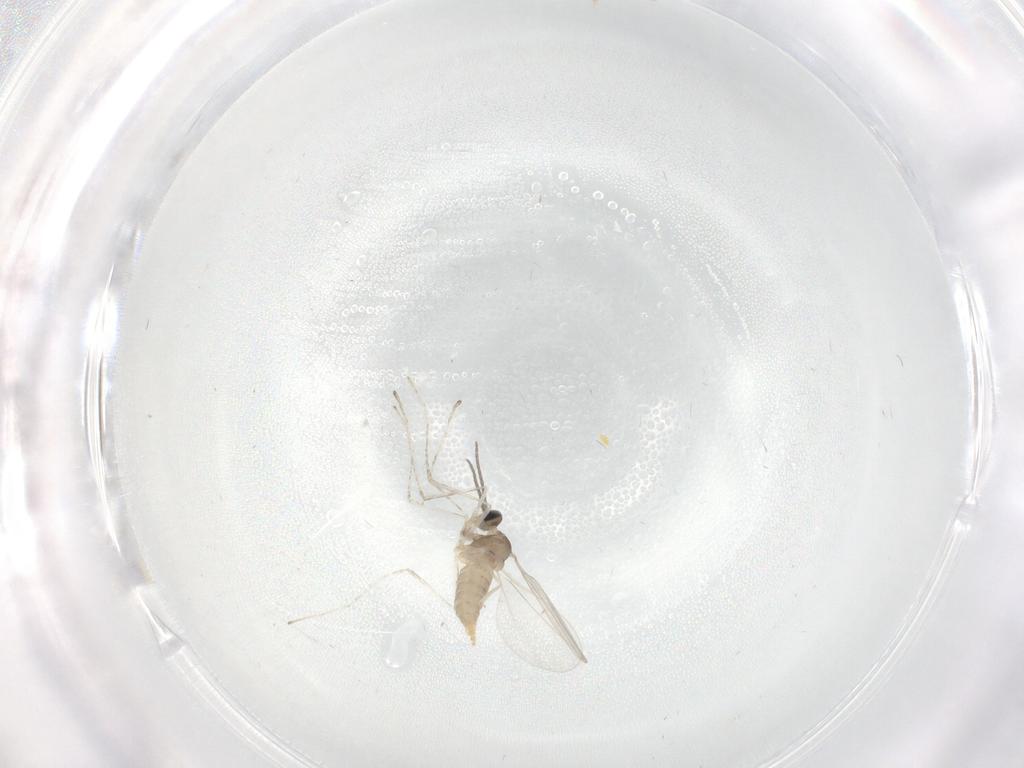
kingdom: Animalia
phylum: Arthropoda
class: Insecta
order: Diptera
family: Cecidomyiidae
